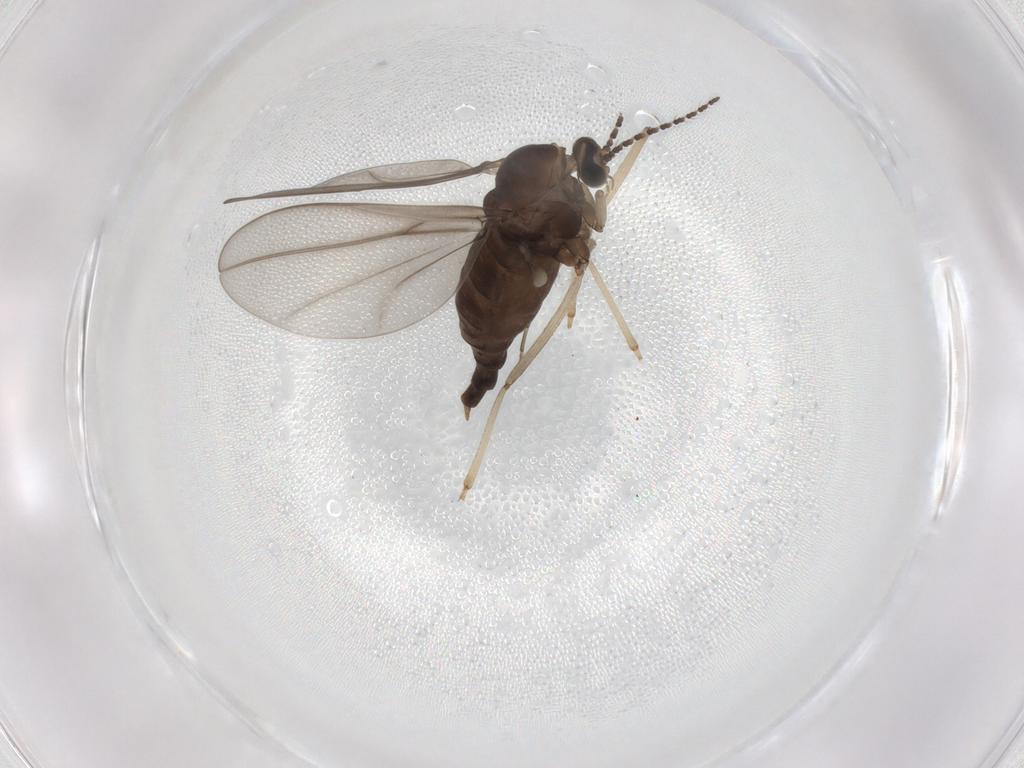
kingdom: Animalia
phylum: Arthropoda
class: Insecta
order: Diptera
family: Cecidomyiidae
